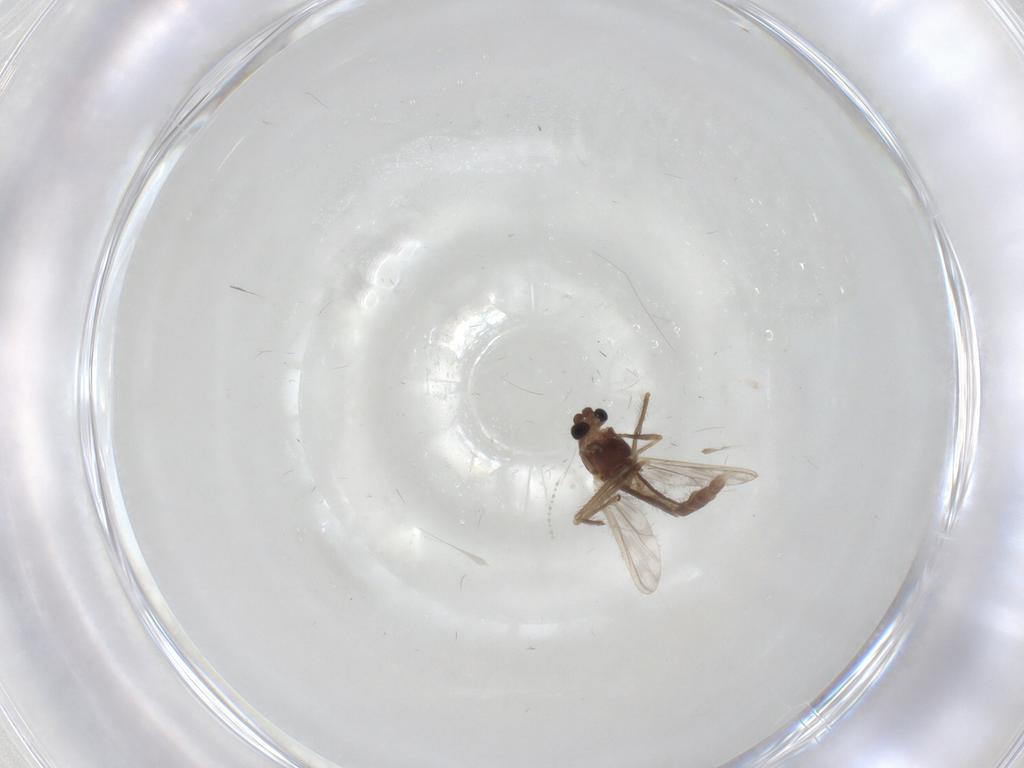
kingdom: Animalia
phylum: Arthropoda
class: Insecta
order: Diptera
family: Chironomidae
